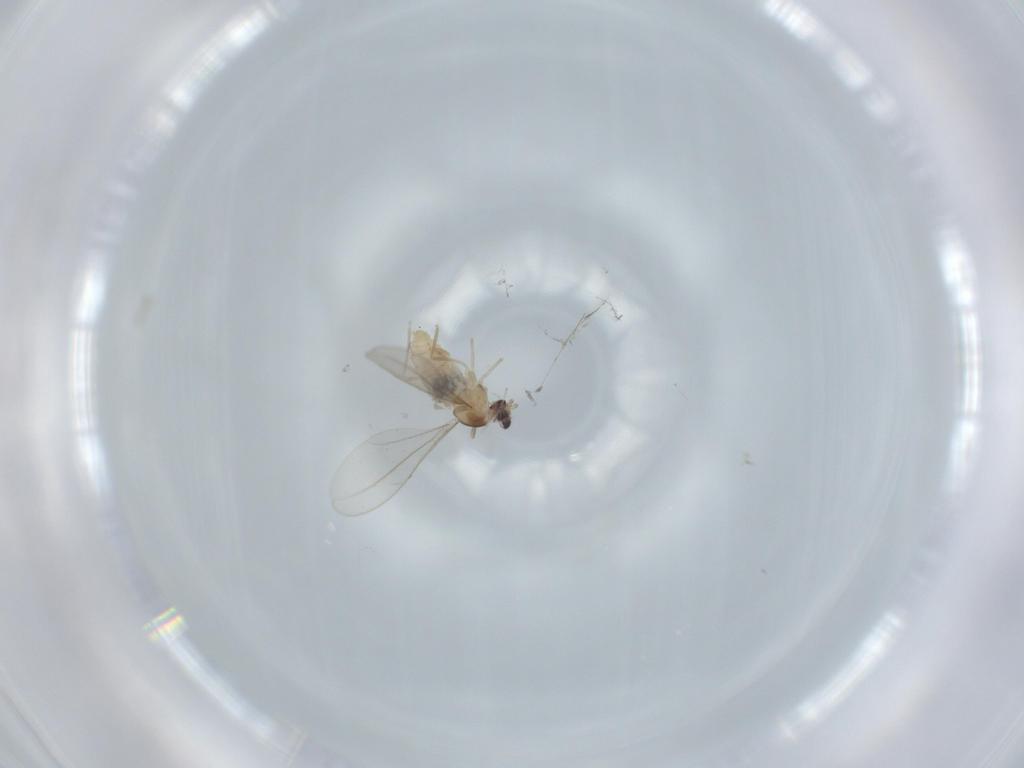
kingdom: Animalia
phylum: Arthropoda
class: Insecta
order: Diptera
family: Cecidomyiidae
